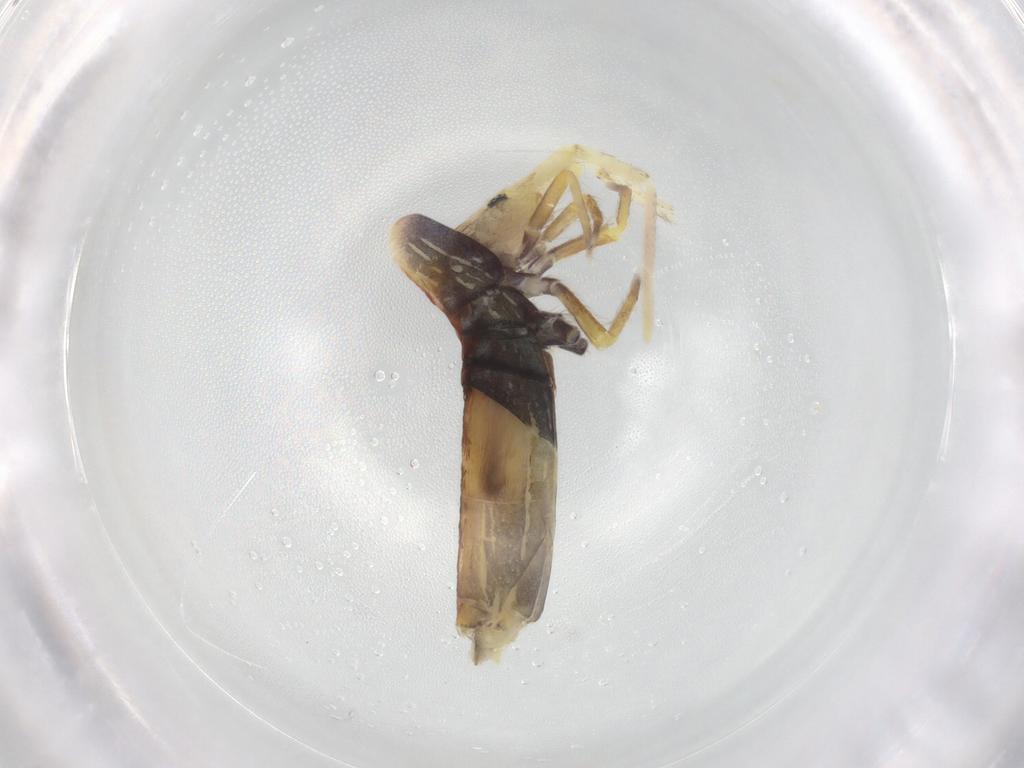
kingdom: Animalia
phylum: Arthropoda
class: Collembola
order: Entomobryomorpha
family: Entomobryidae
